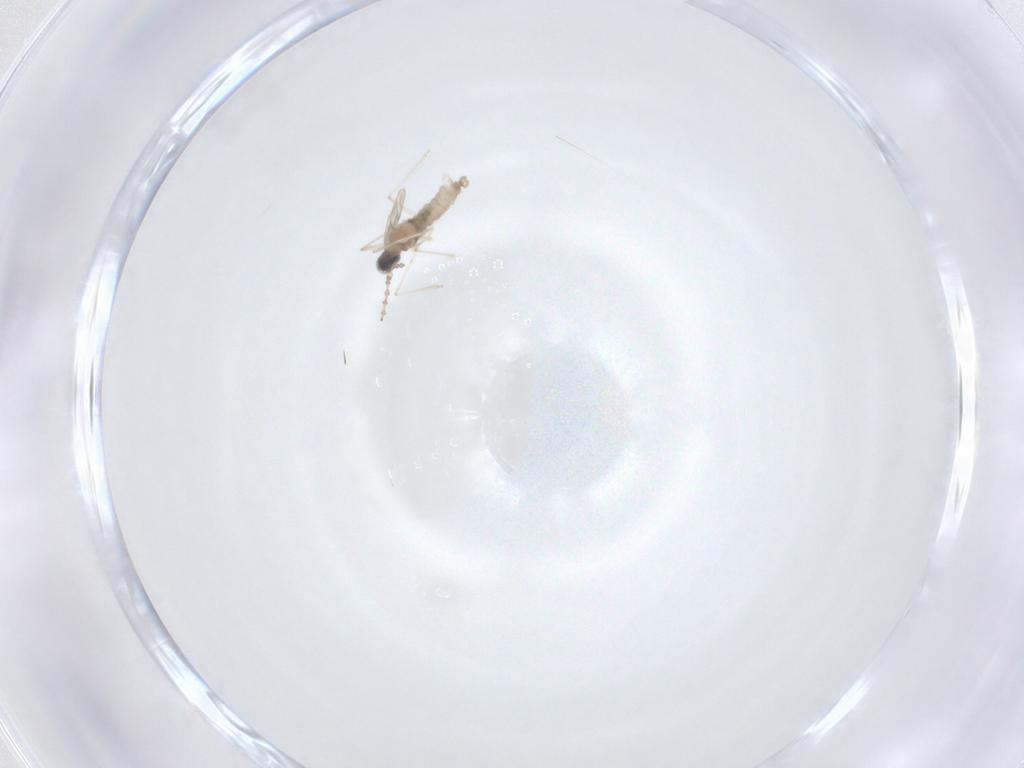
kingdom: Animalia
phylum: Arthropoda
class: Insecta
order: Diptera
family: Cecidomyiidae
